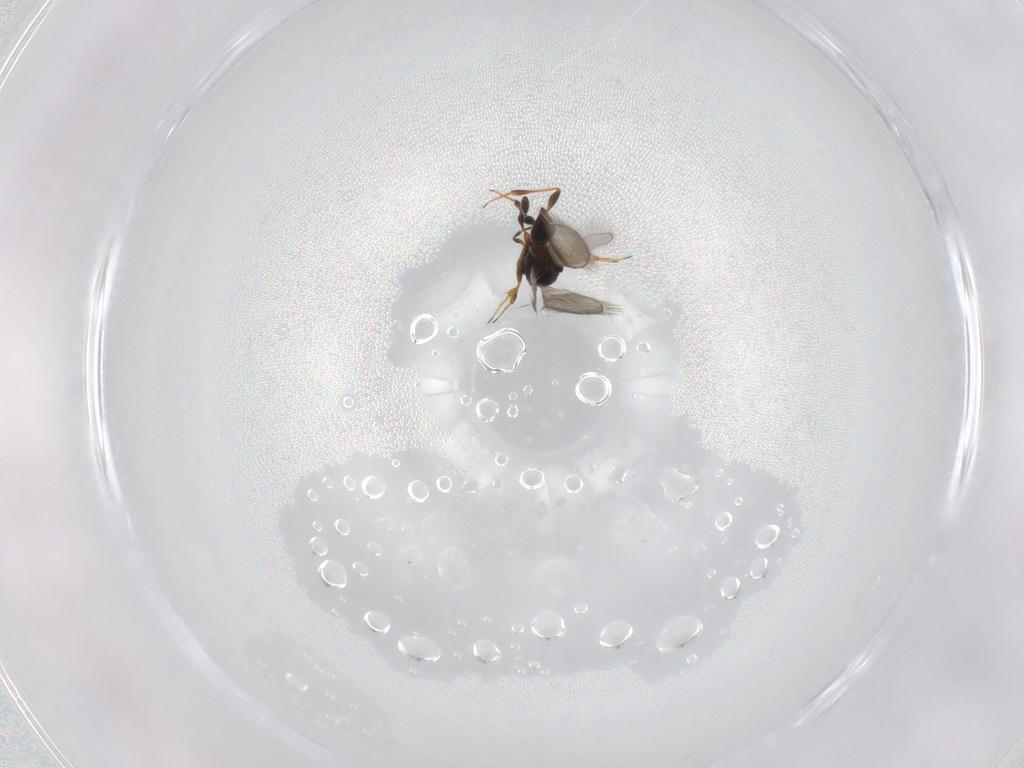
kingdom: Animalia
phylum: Arthropoda
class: Insecta
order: Hymenoptera
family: Platygastridae
